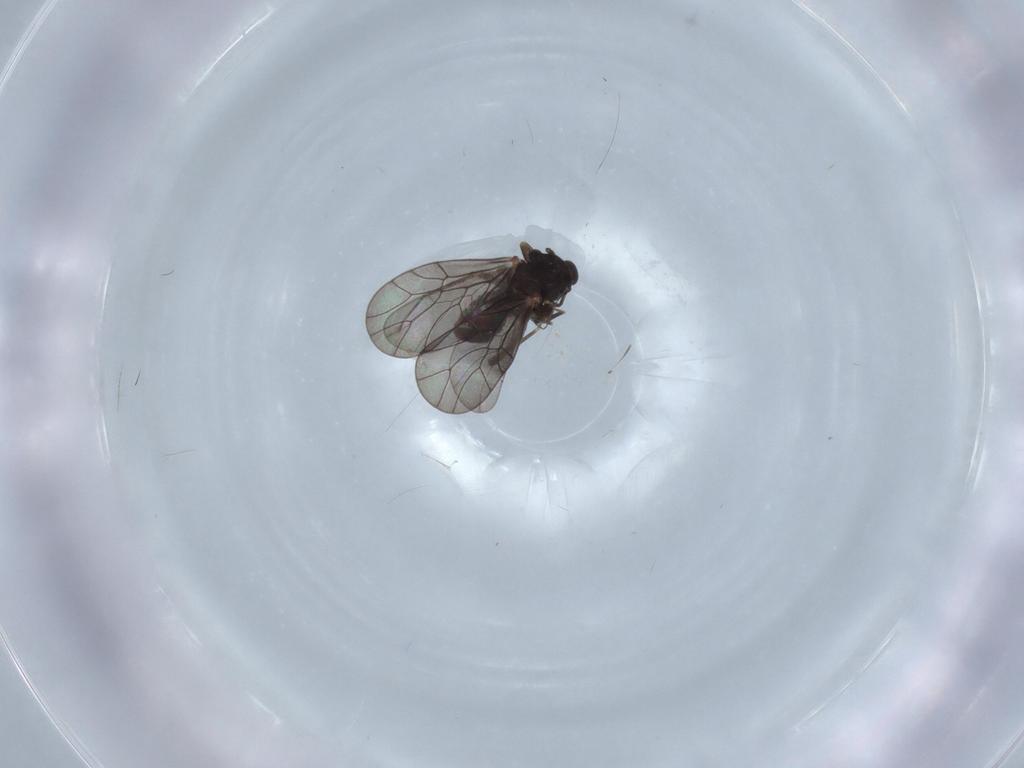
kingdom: Animalia
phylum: Arthropoda
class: Insecta
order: Psocodea
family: Lepidopsocidae
